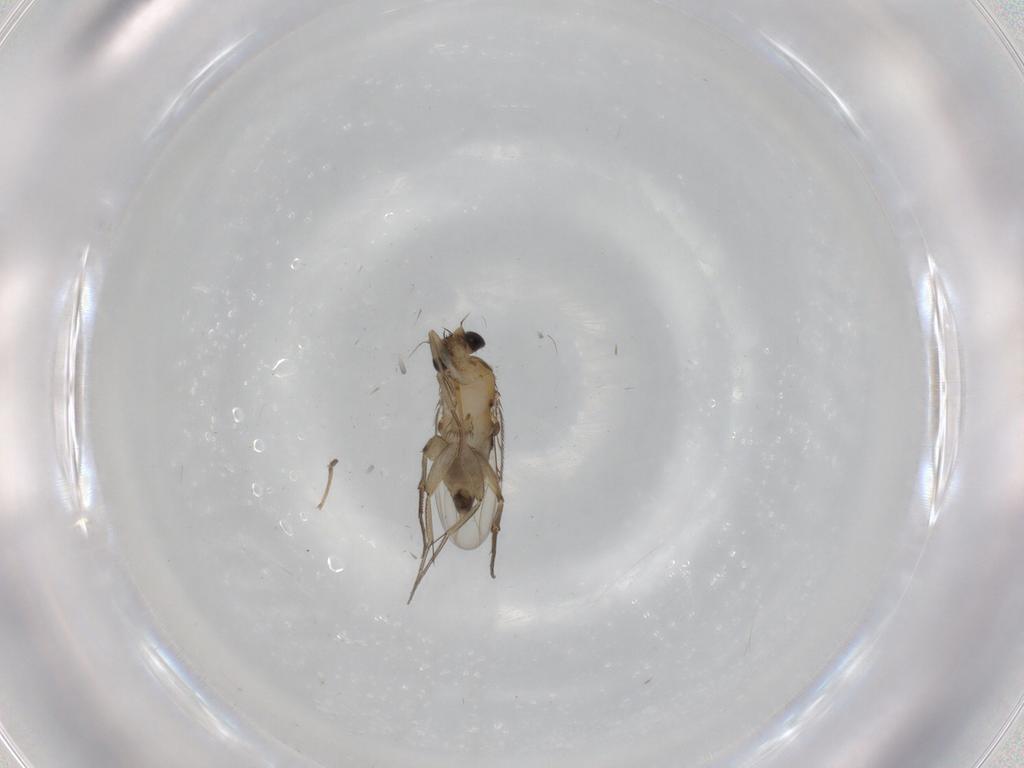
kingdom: Animalia
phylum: Arthropoda
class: Insecta
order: Diptera
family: Phoridae
